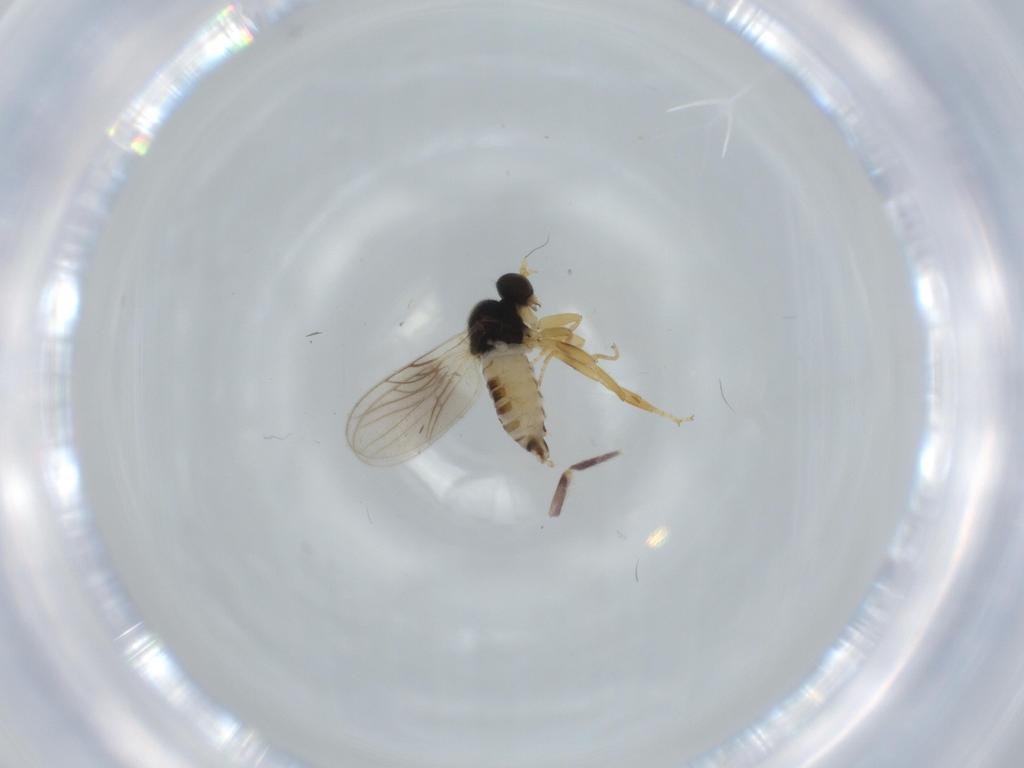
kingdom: Animalia
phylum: Arthropoda
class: Insecta
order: Diptera
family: Hybotidae
